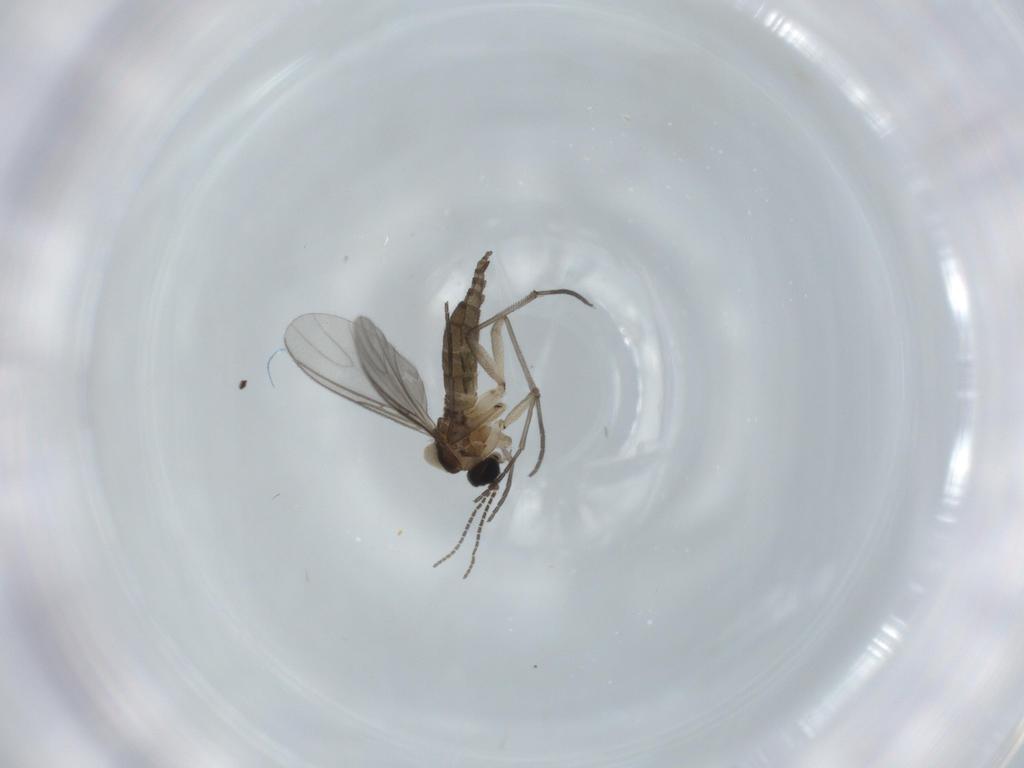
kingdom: Animalia
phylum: Arthropoda
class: Insecta
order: Diptera
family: Sciaridae
